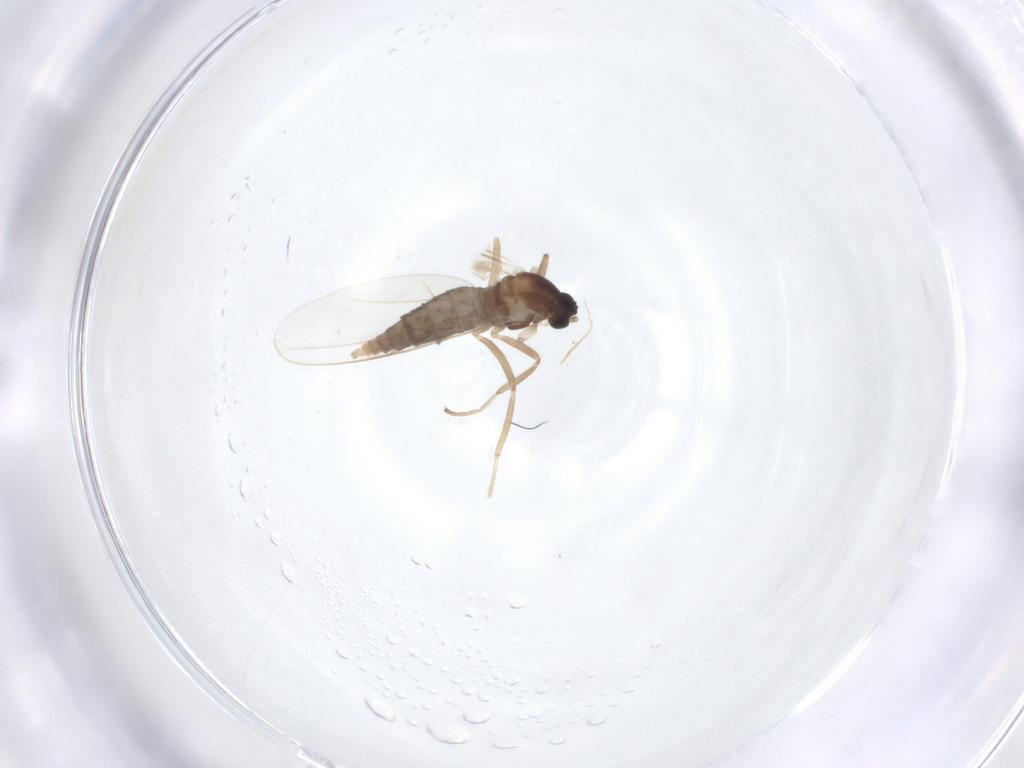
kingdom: Animalia
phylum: Arthropoda
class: Insecta
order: Diptera
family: Cecidomyiidae
